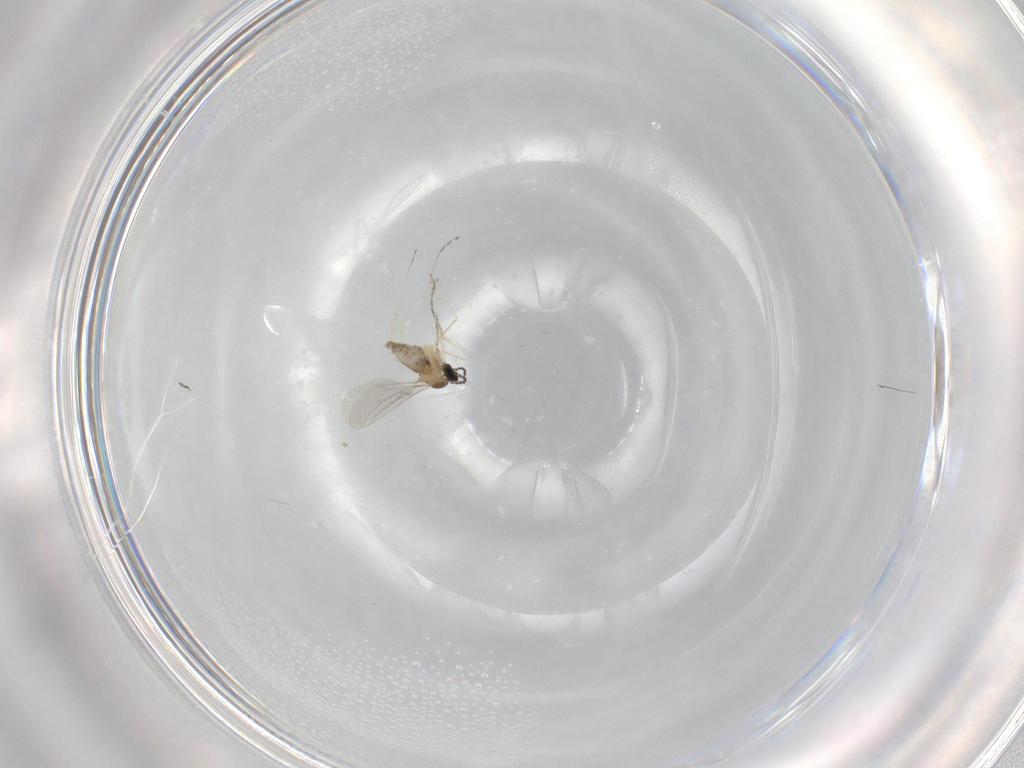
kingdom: Animalia
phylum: Arthropoda
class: Insecta
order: Diptera
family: Cecidomyiidae
